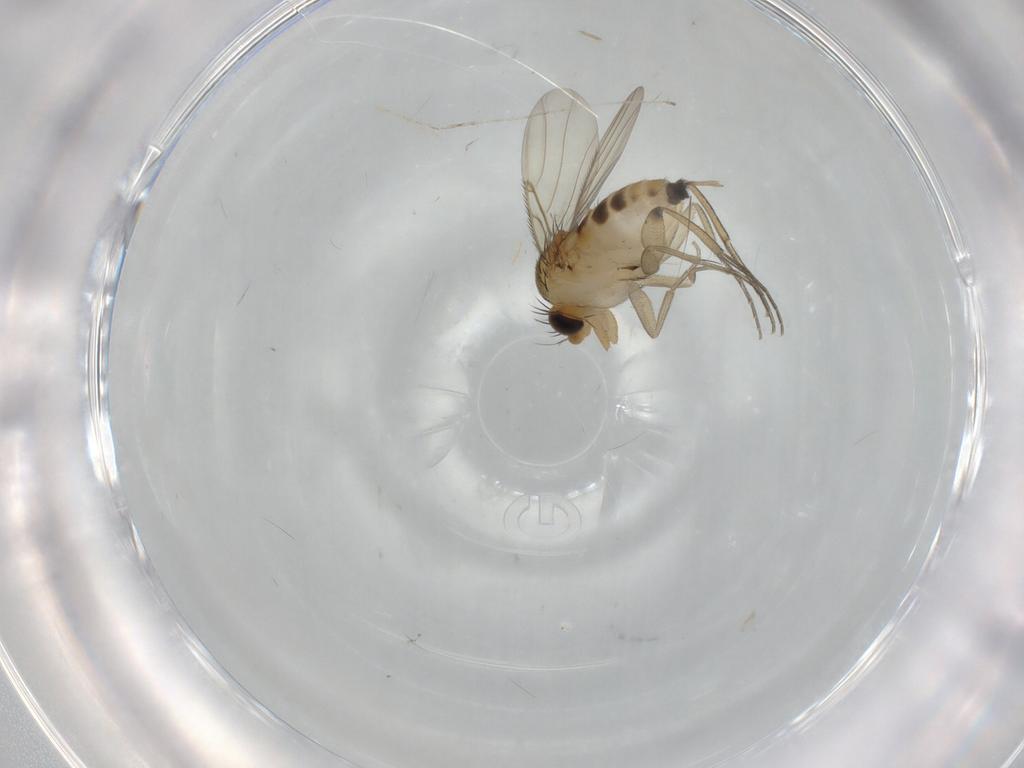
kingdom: Animalia
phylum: Arthropoda
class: Insecta
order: Diptera
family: Phoridae
